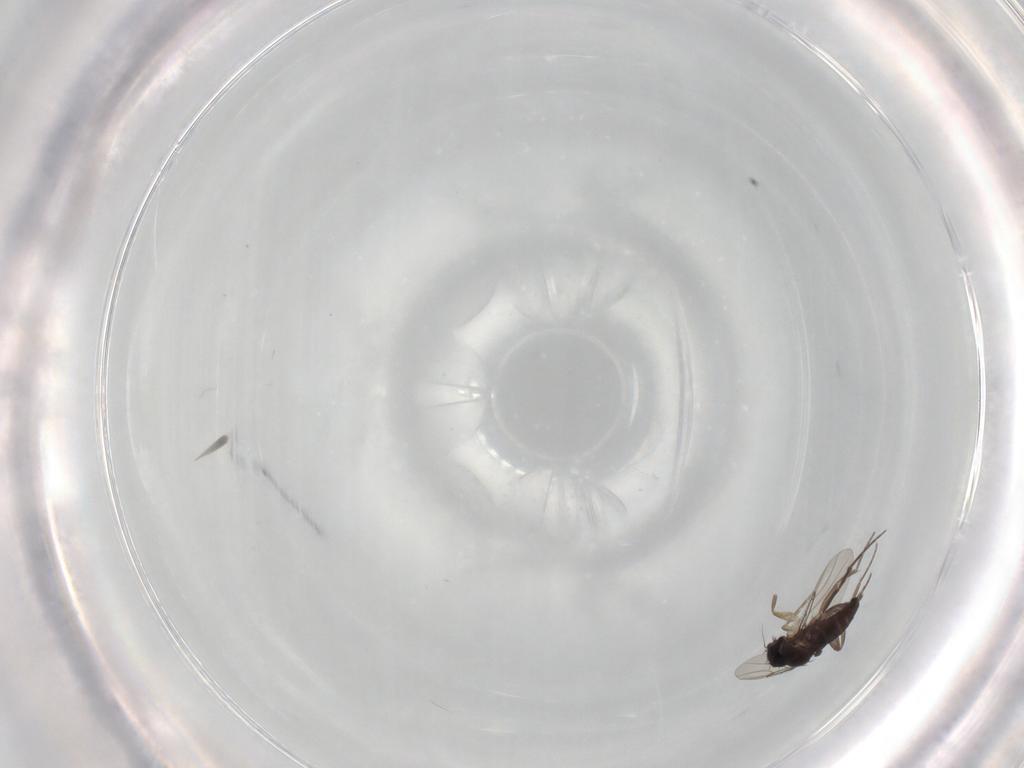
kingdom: Animalia
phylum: Arthropoda
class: Insecta
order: Diptera
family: Phoridae
